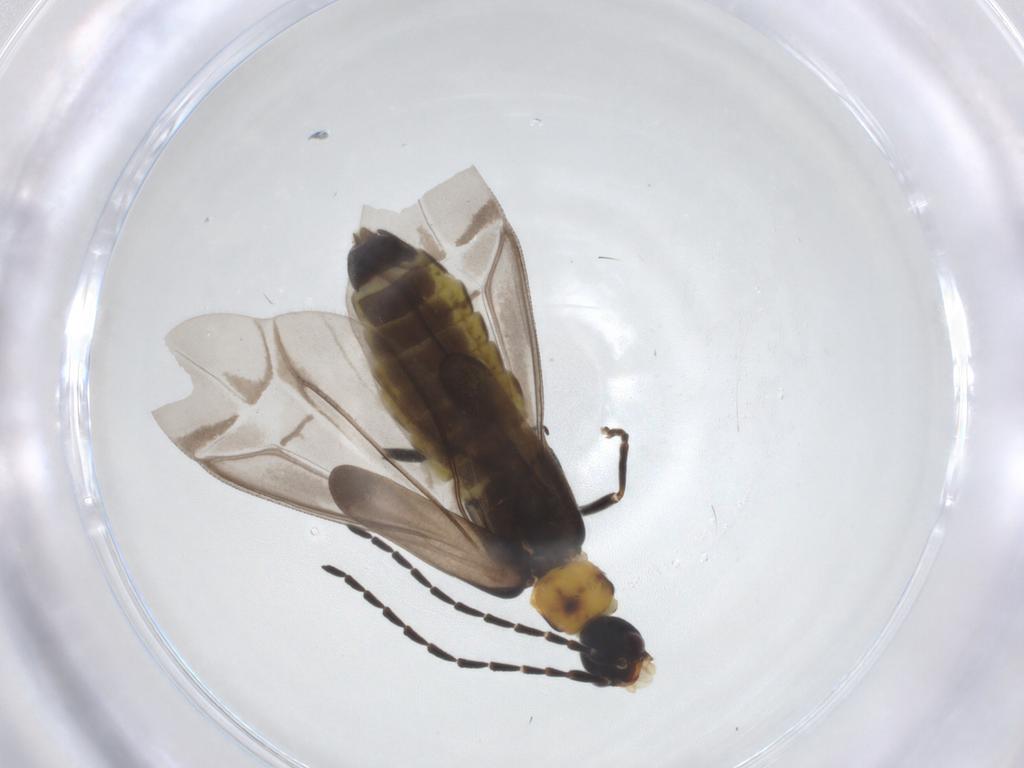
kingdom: Animalia
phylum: Arthropoda
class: Insecta
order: Coleoptera
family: Cantharidae
